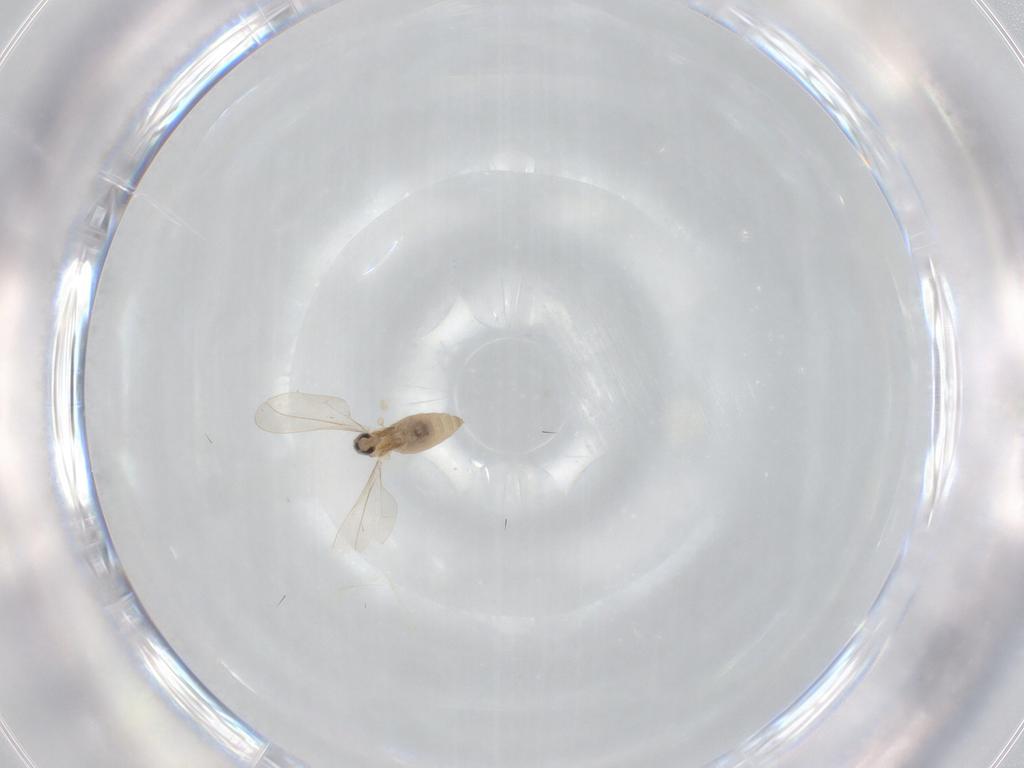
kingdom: Animalia
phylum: Arthropoda
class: Insecta
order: Diptera
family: Cecidomyiidae
